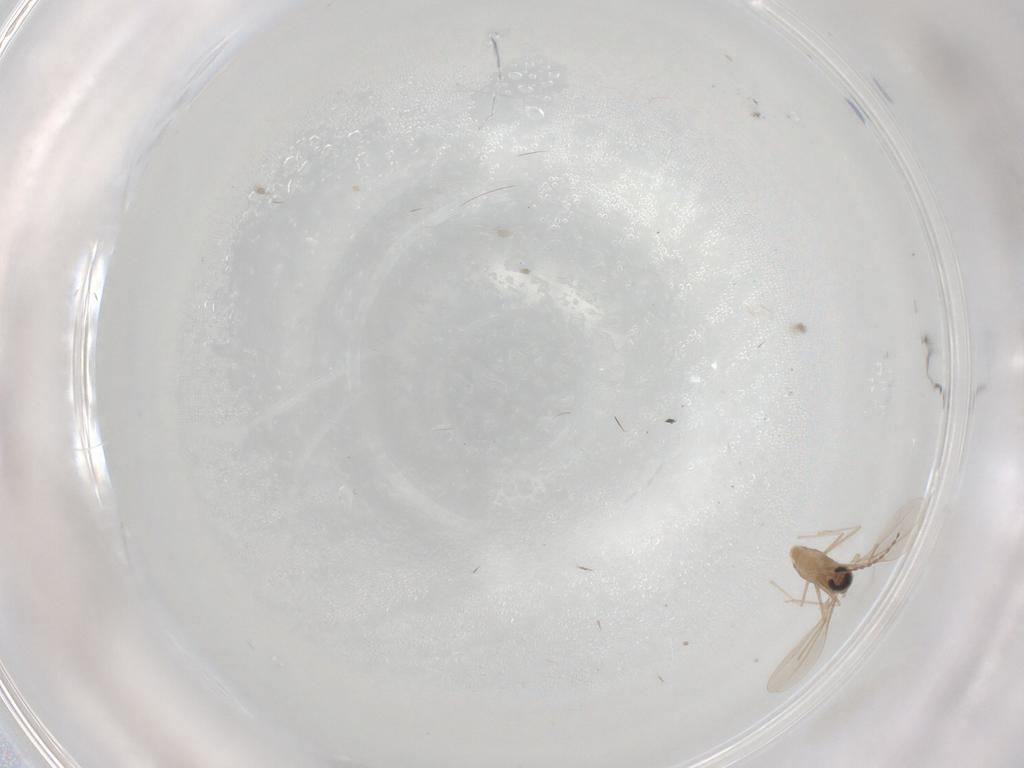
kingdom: Animalia
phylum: Arthropoda
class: Insecta
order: Diptera
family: Cecidomyiidae
